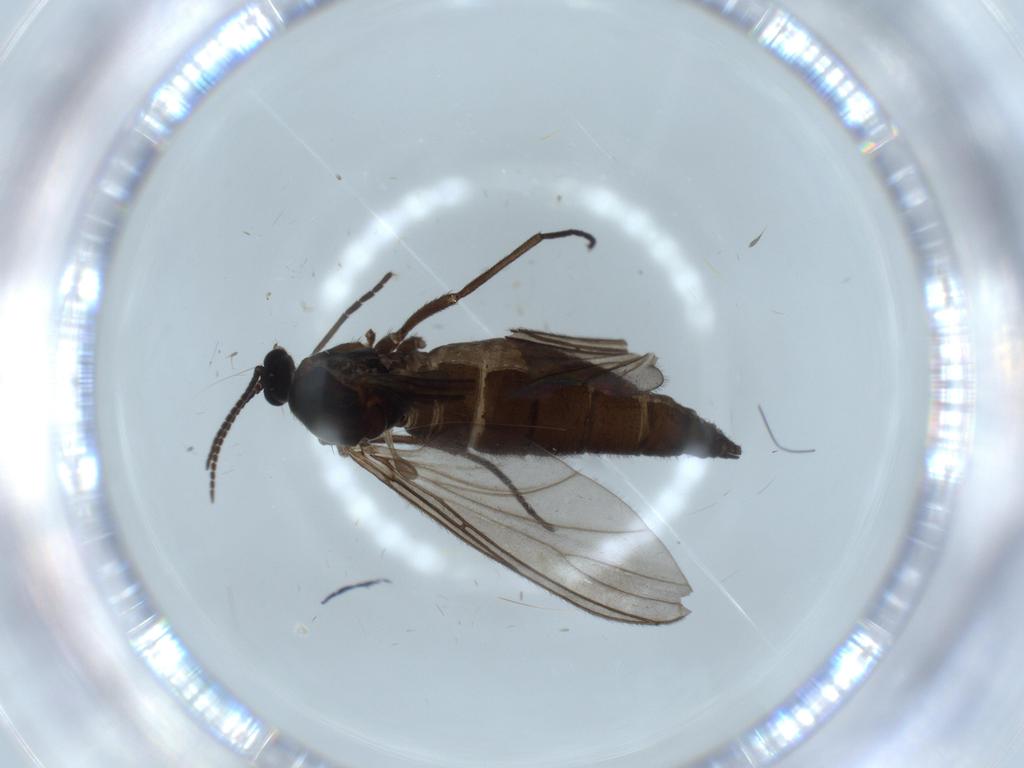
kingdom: Animalia
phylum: Arthropoda
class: Insecta
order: Diptera
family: Sciaridae
